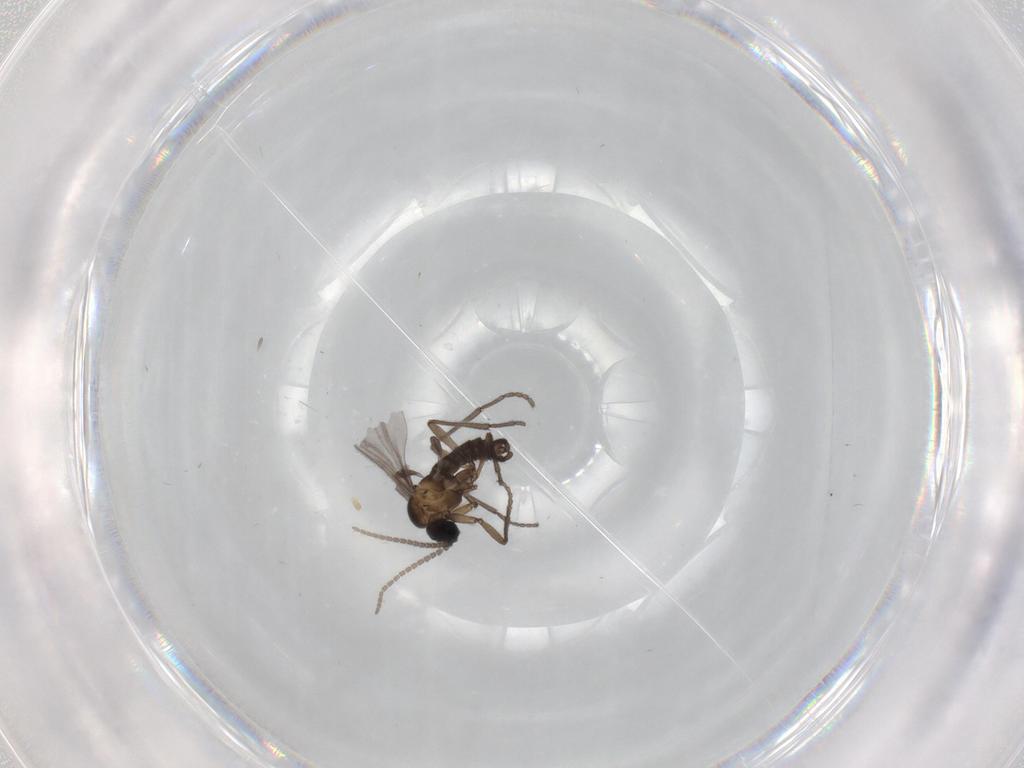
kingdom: Animalia
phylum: Arthropoda
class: Insecta
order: Diptera
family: Sciaridae
